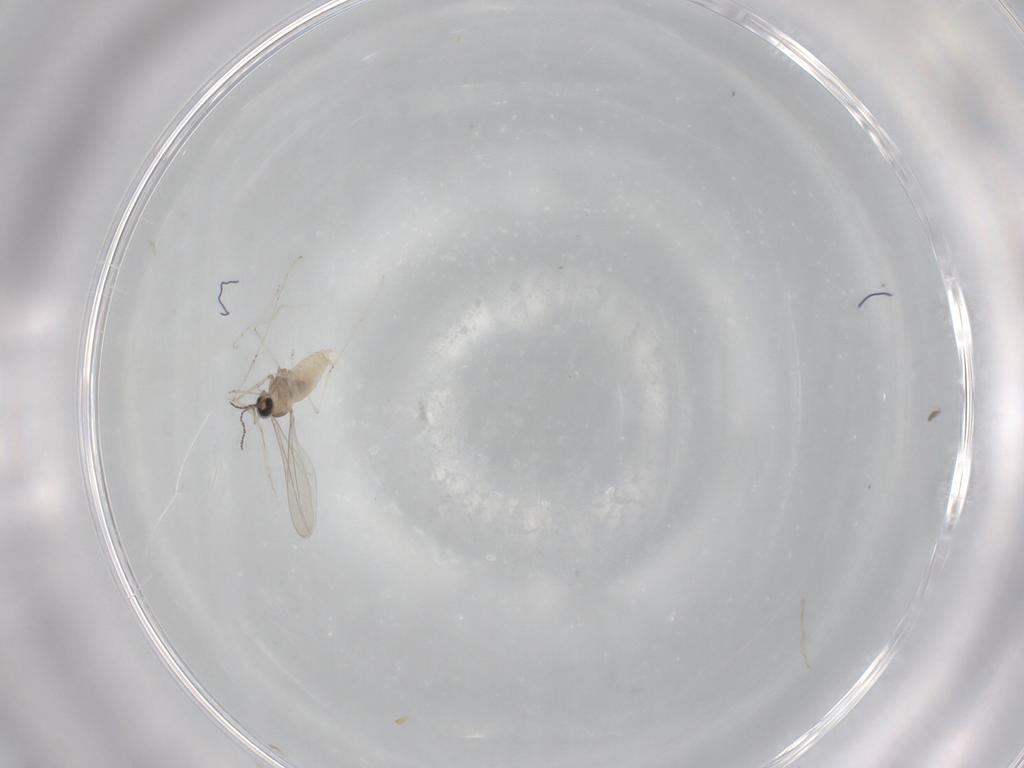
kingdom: Animalia
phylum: Arthropoda
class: Insecta
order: Diptera
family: Cecidomyiidae
